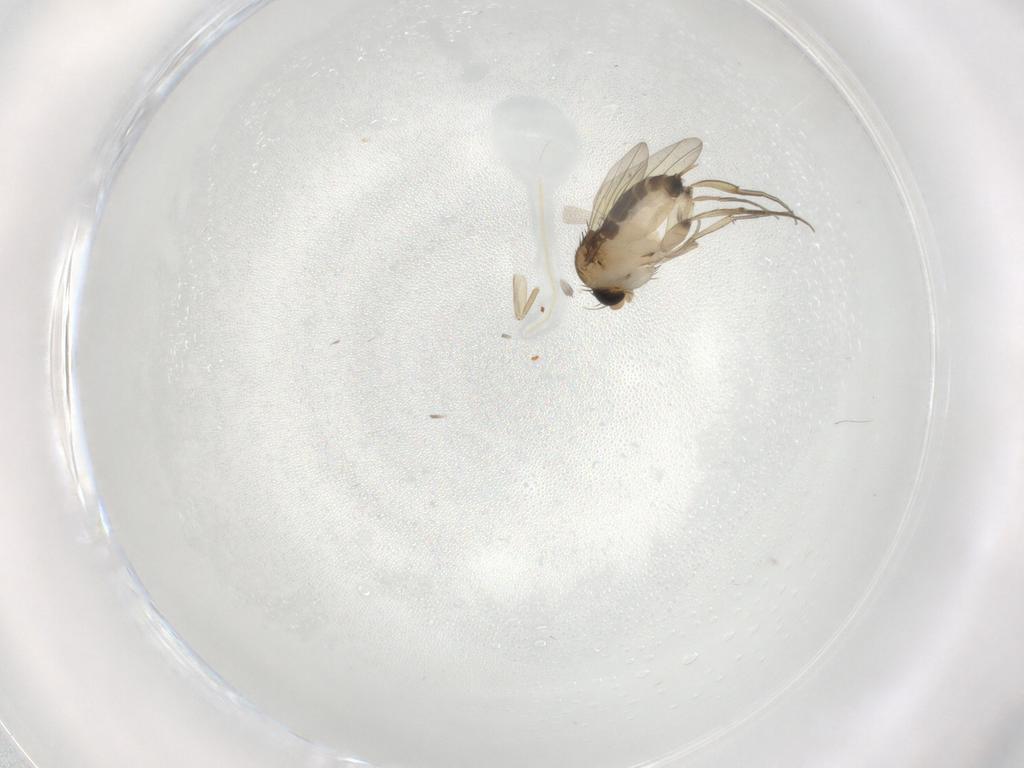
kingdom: Animalia
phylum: Arthropoda
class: Insecta
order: Diptera
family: Phoridae
